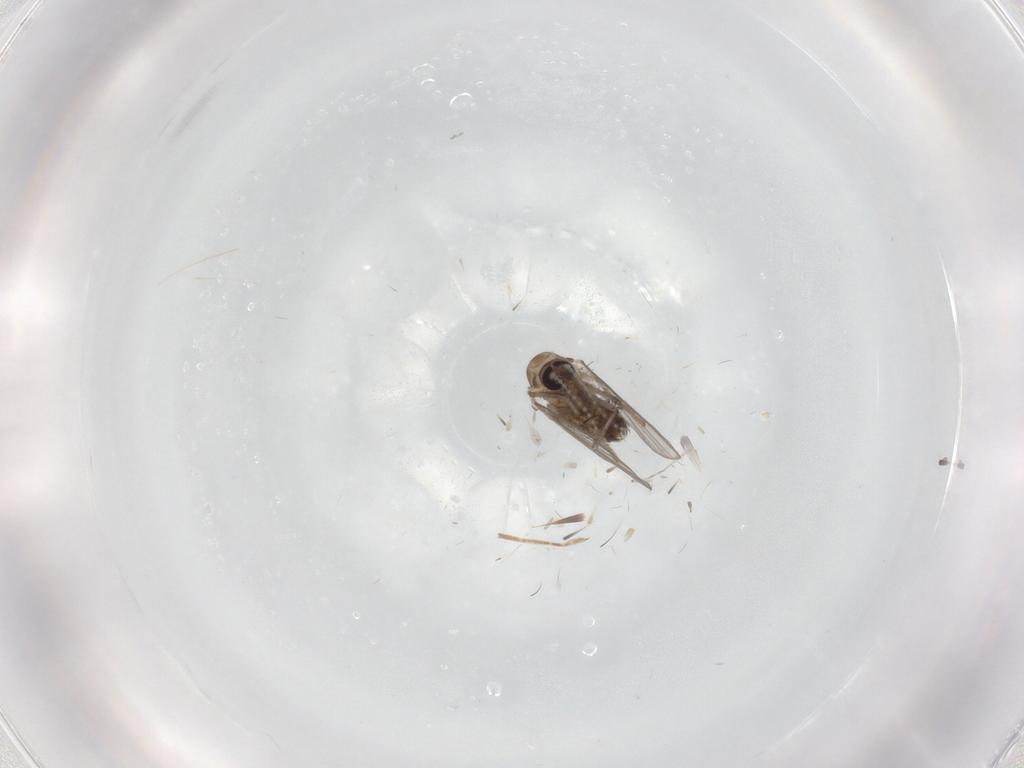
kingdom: Animalia
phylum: Arthropoda
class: Insecta
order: Diptera
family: Psychodidae
